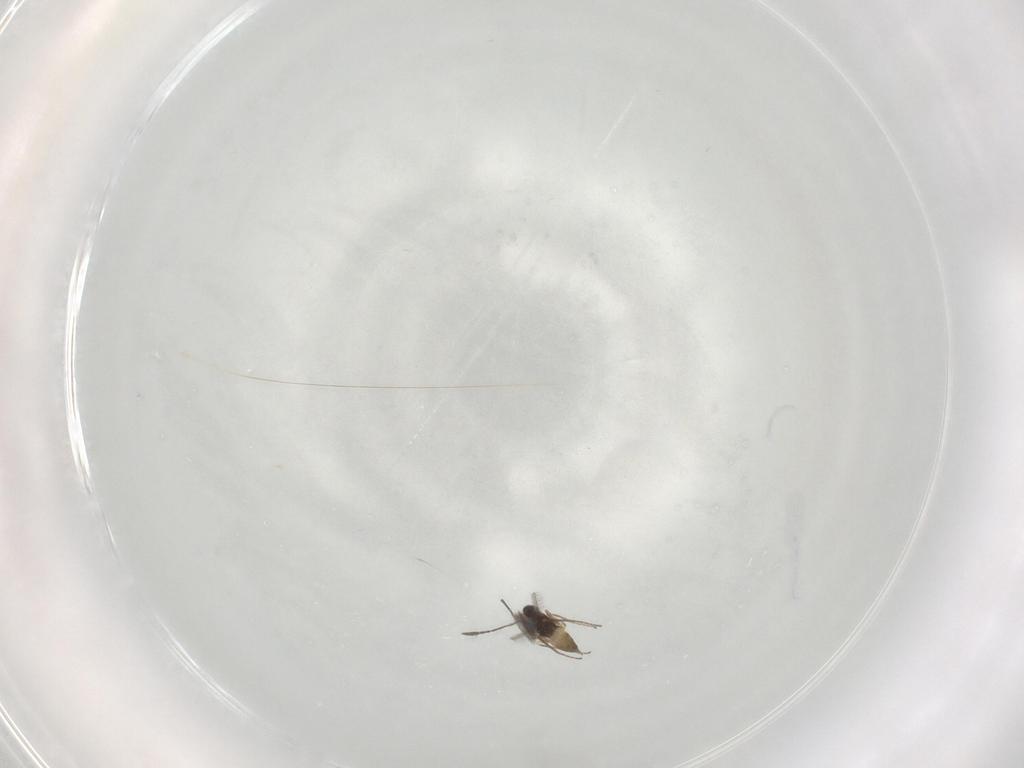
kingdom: Animalia
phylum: Arthropoda
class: Insecta
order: Hymenoptera
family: Mymaridae
